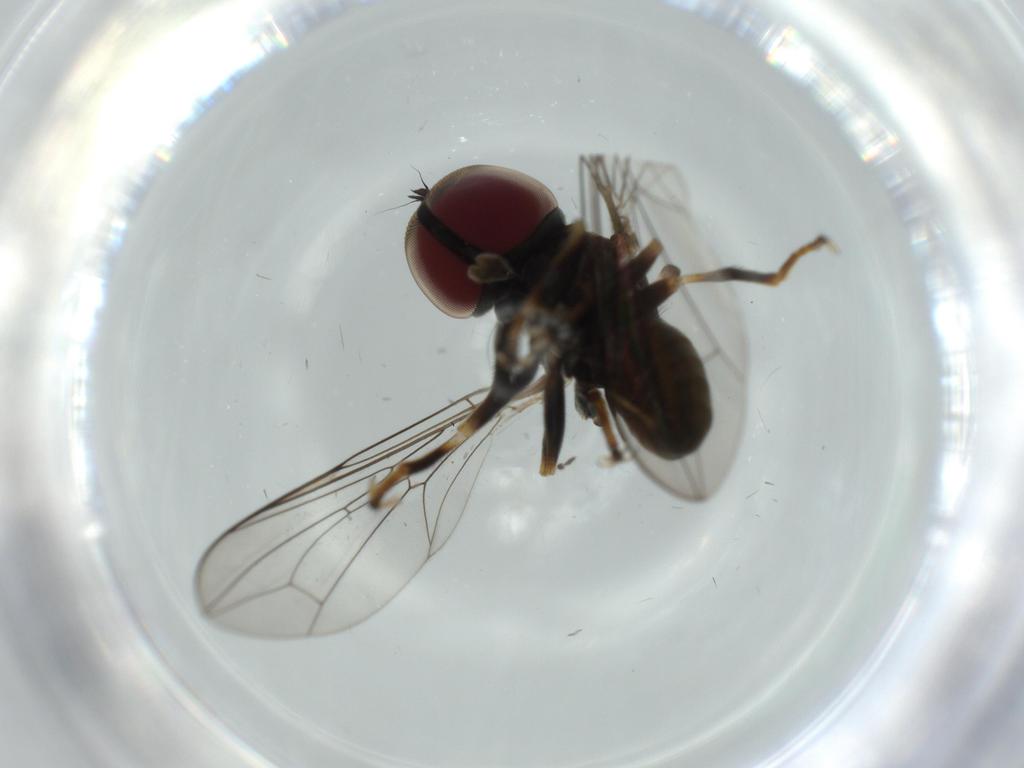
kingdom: Animalia
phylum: Arthropoda
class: Insecta
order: Diptera
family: Pipunculidae
